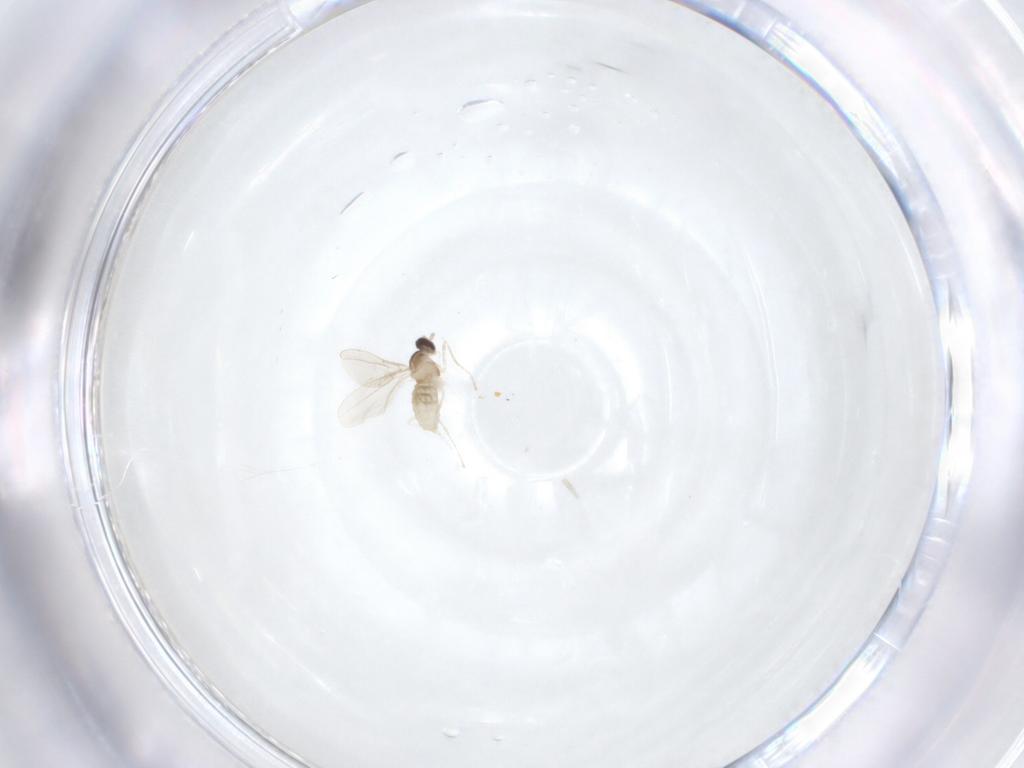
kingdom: Animalia
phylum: Arthropoda
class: Insecta
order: Diptera
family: Cecidomyiidae
